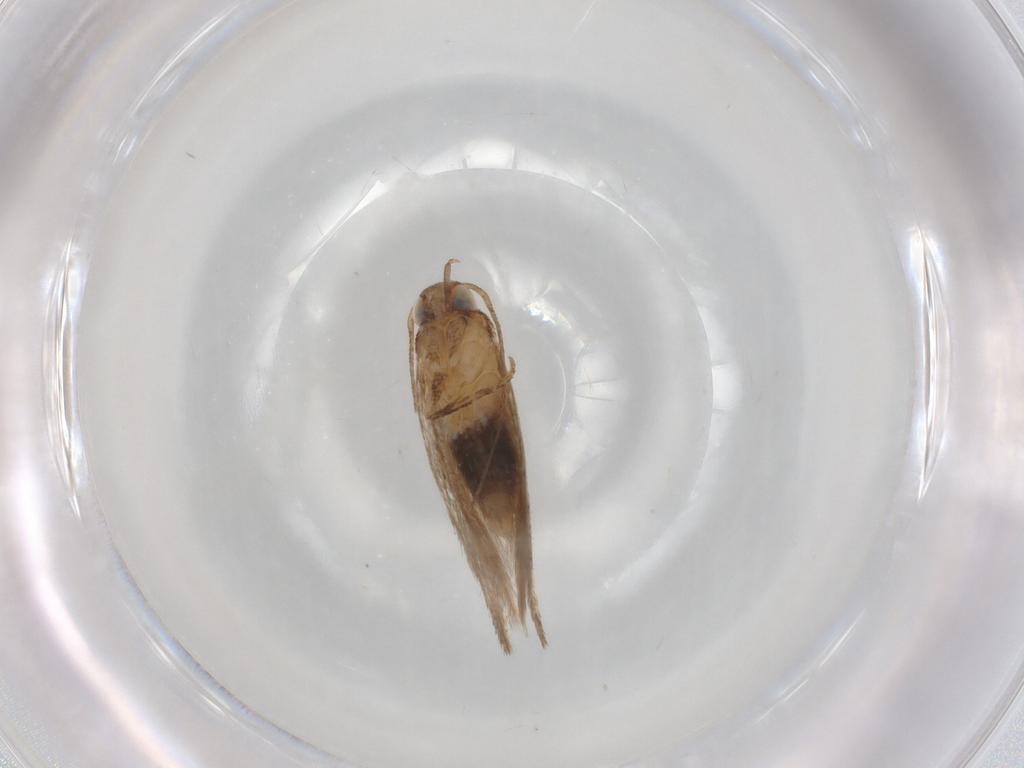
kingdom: Animalia
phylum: Arthropoda
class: Insecta
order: Lepidoptera
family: Gelechiidae
